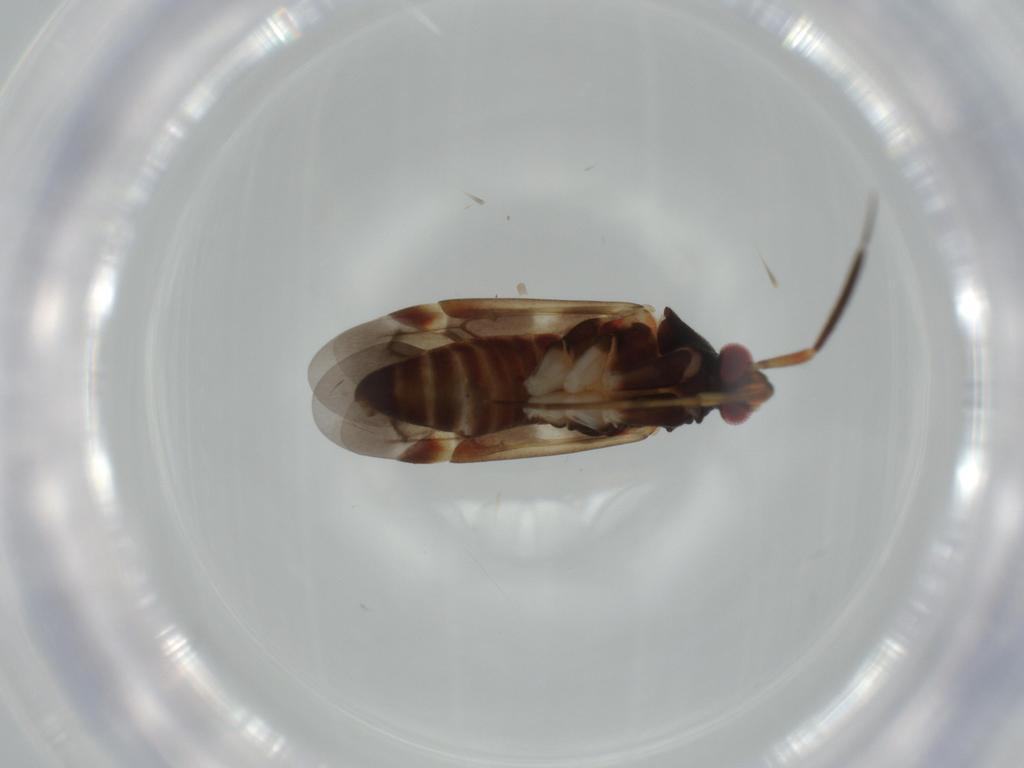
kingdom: Animalia
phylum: Arthropoda
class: Insecta
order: Hemiptera
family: Miridae
